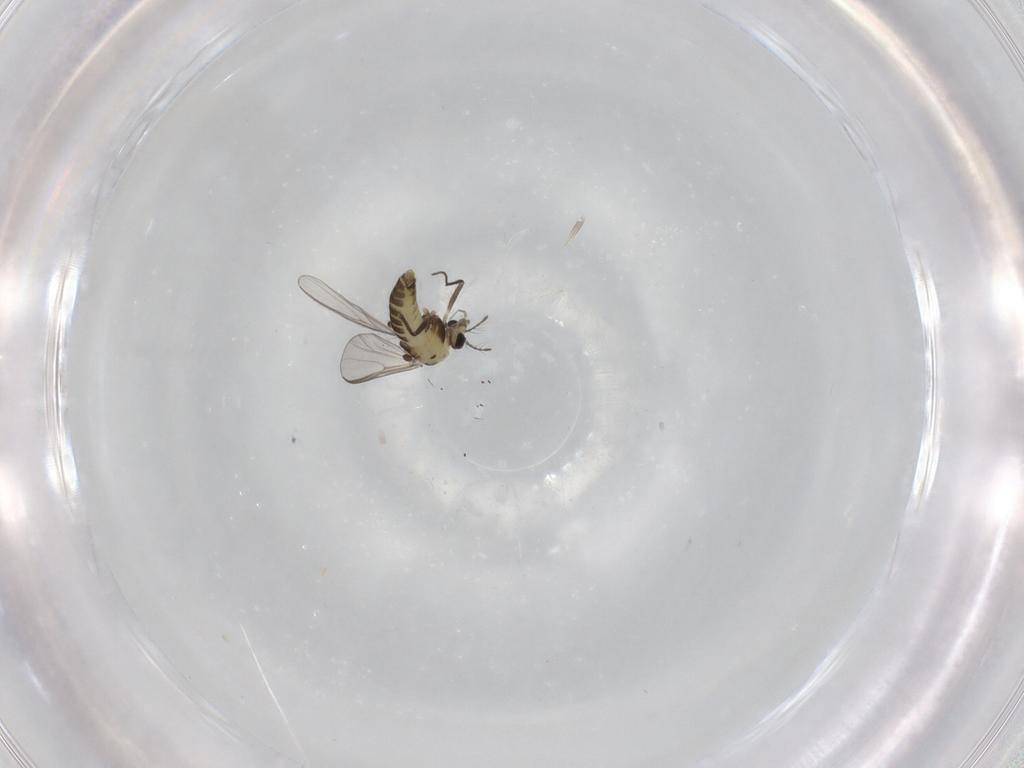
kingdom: Animalia
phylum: Arthropoda
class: Insecta
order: Diptera
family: Chironomidae
